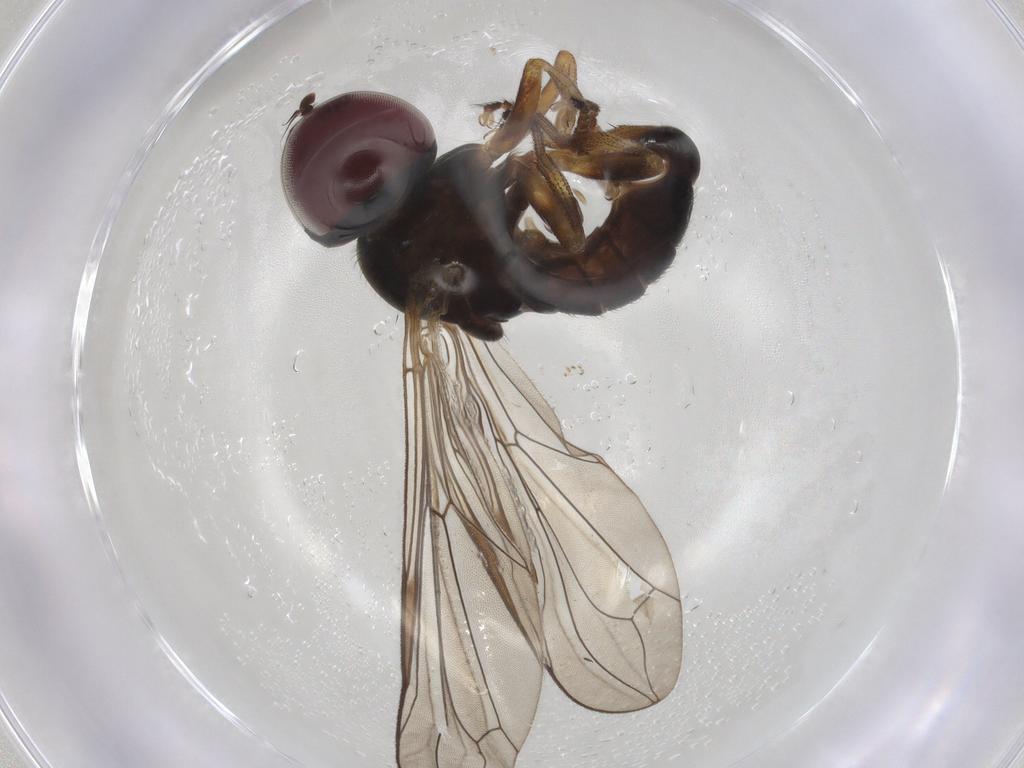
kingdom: Animalia
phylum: Arthropoda
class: Insecta
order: Diptera
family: Pipunculidae
